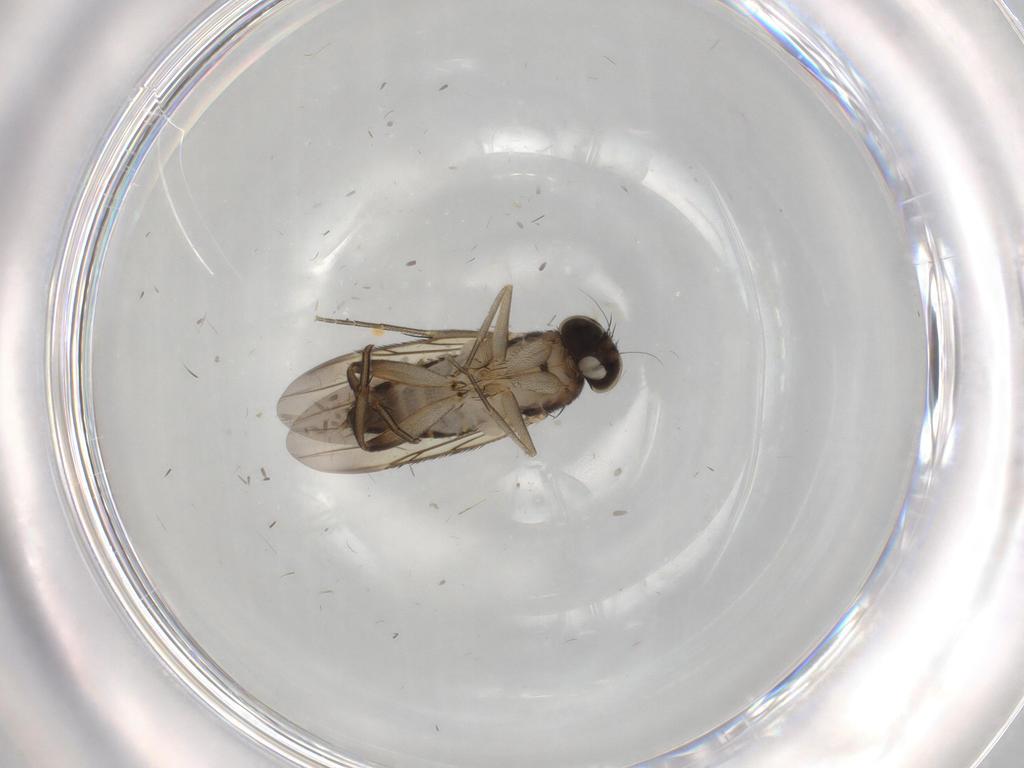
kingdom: Animalia
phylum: Arthropoda
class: Insecta
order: Diptera
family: Phoridae
